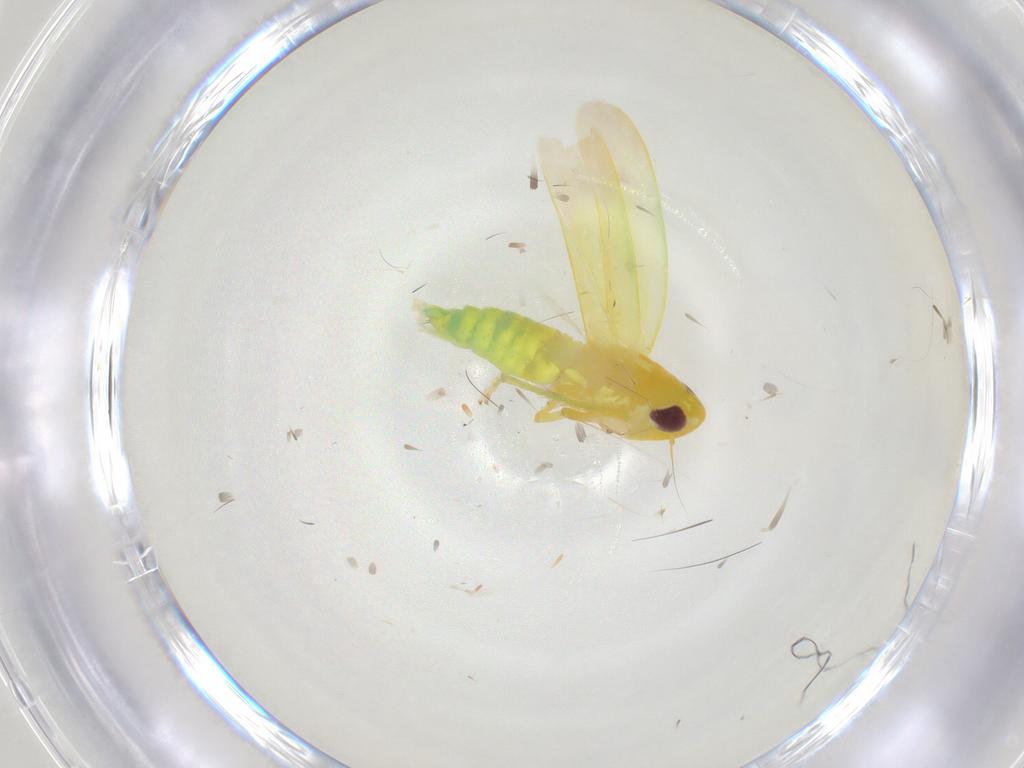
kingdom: Animalia
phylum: Arthropoda
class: Insecta
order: Hemiptera
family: Cicadellidae
